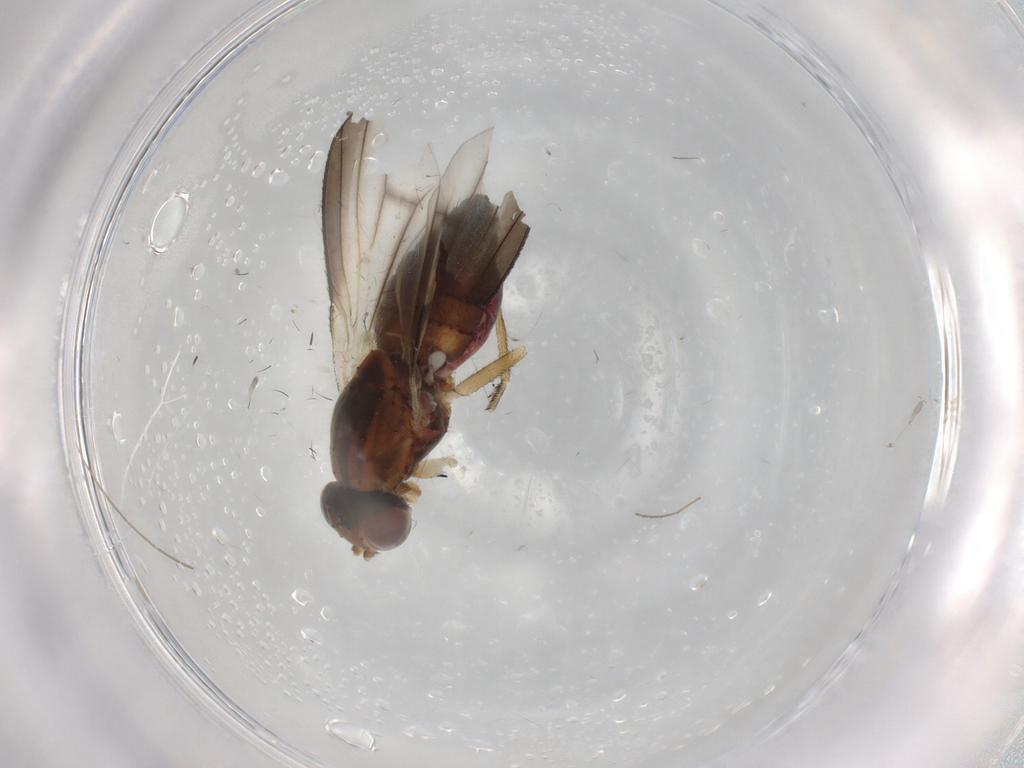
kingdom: Animalia
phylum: Arthropoda
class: Insecta
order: Diptera
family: Heleomyzidae
